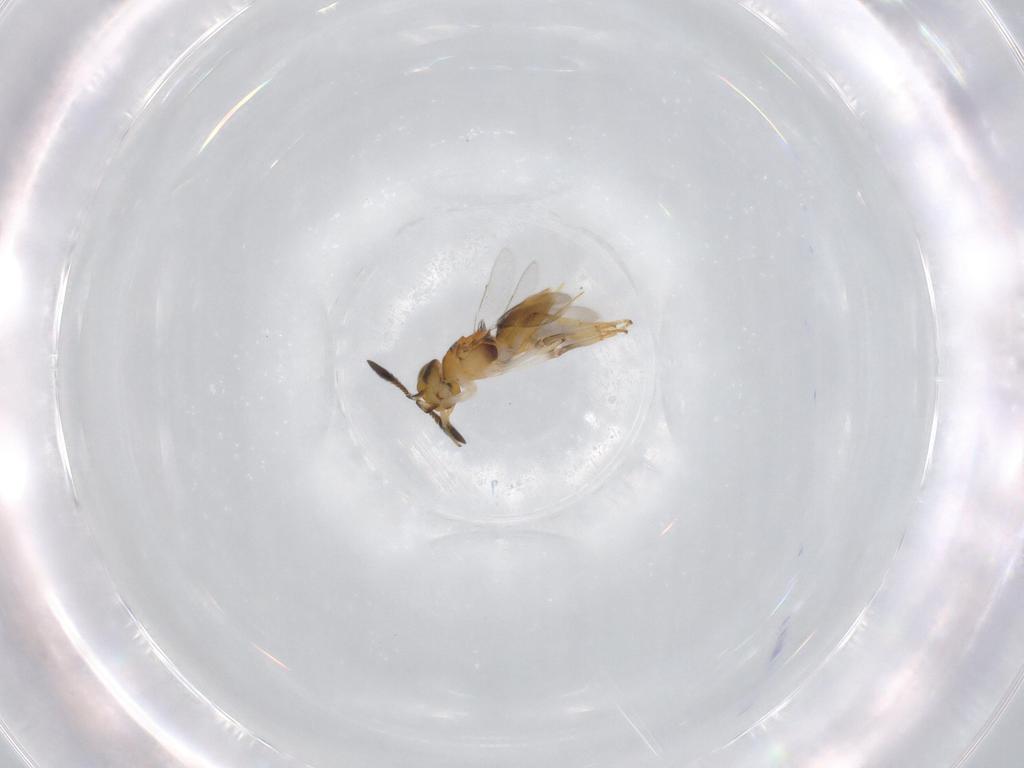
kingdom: Animalia
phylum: Arthropoda
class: Insecta
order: Hymenoptera
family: Encyrtidae
